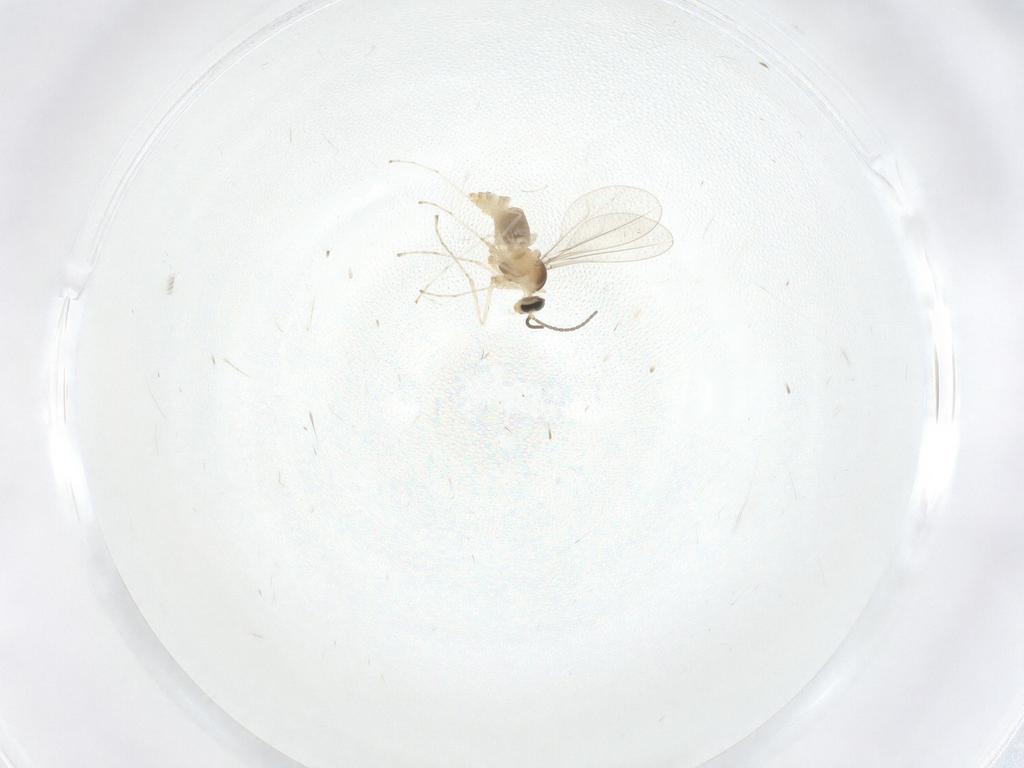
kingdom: Animalia
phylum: Arthropoda
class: Insecta
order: Diptera
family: Cecidomyiidae
